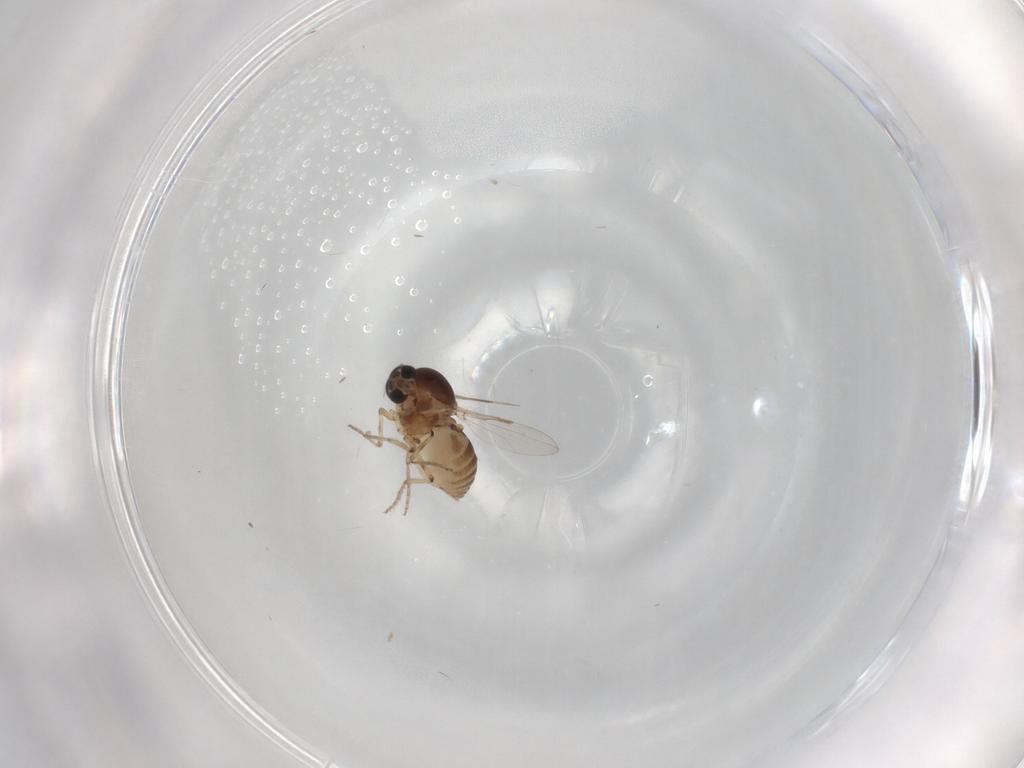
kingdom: Animalia
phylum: Arthropoda
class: Insecta
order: Diptera
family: Ceratopogonidae
